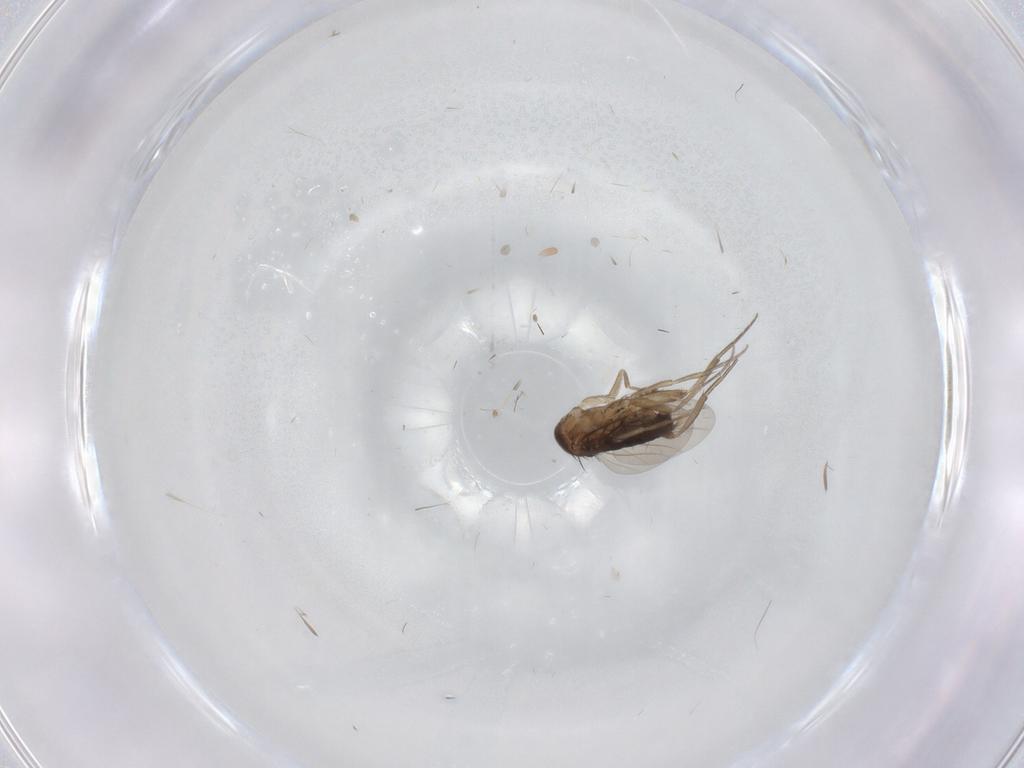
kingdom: Animalia
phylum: Arthropoda
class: Insecta
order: Diptera
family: Phoridae
